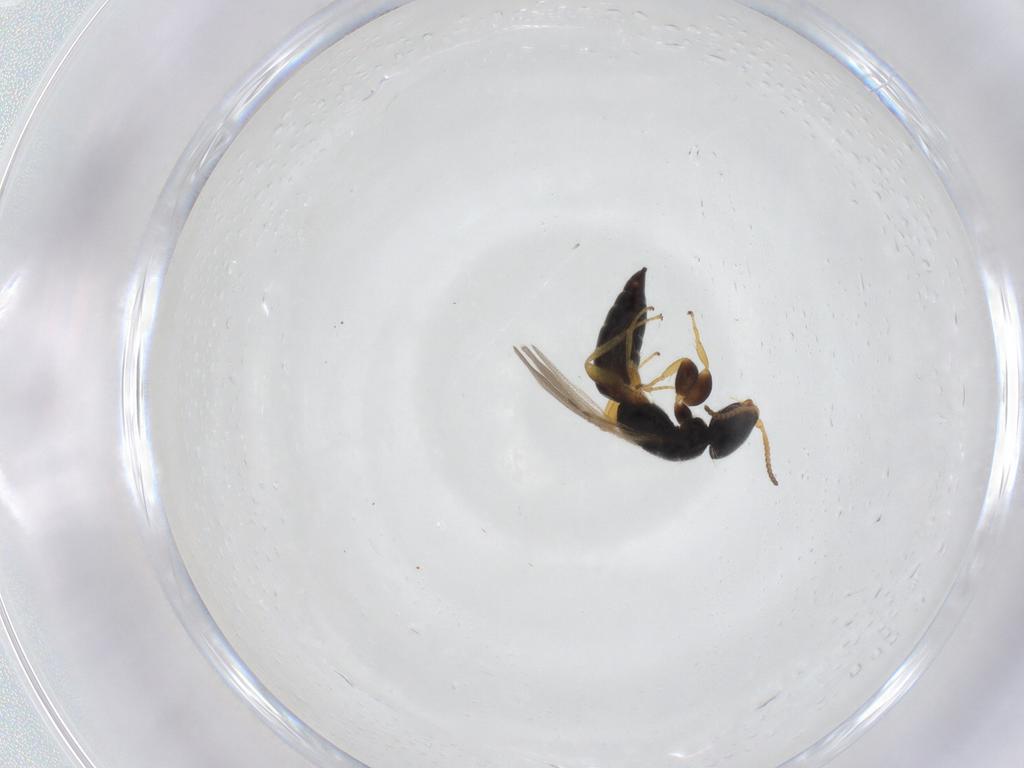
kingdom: Animalia
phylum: Arthropoda
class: Insecta
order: Hymenoptera
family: Bethylidae
